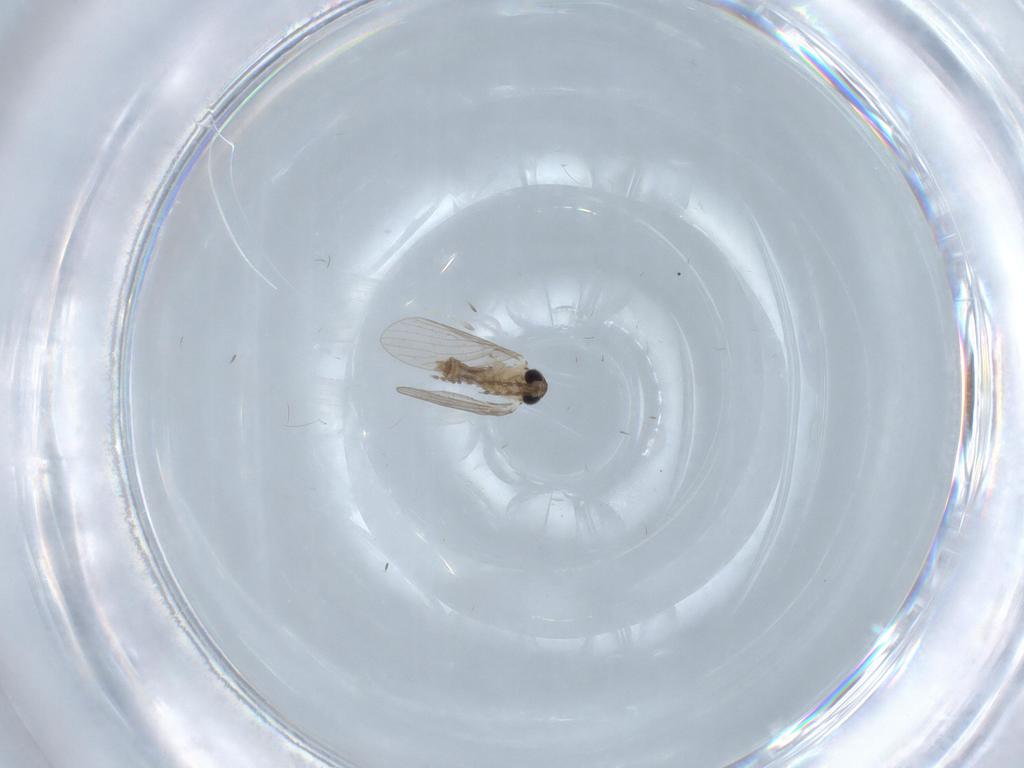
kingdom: Animalia
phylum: Arthropoda
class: Insecta
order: Diptera
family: Psychodidae
